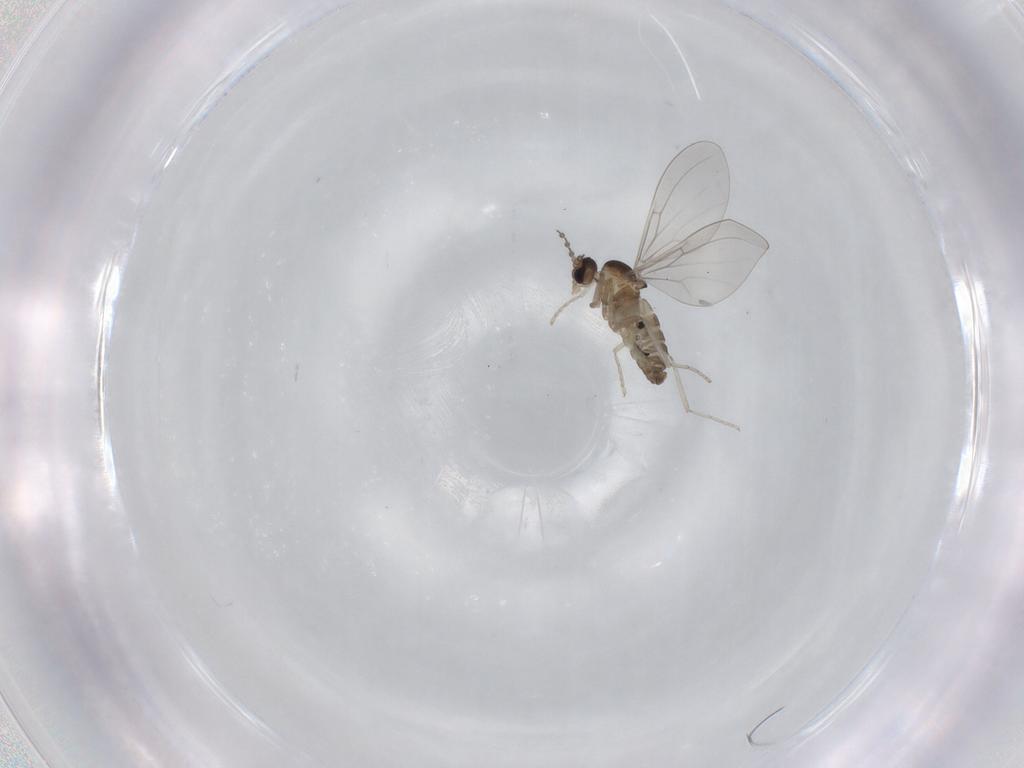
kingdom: Animalia
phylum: Arthropoda
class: Insecta
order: Diptera
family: Cecidomyiidae
